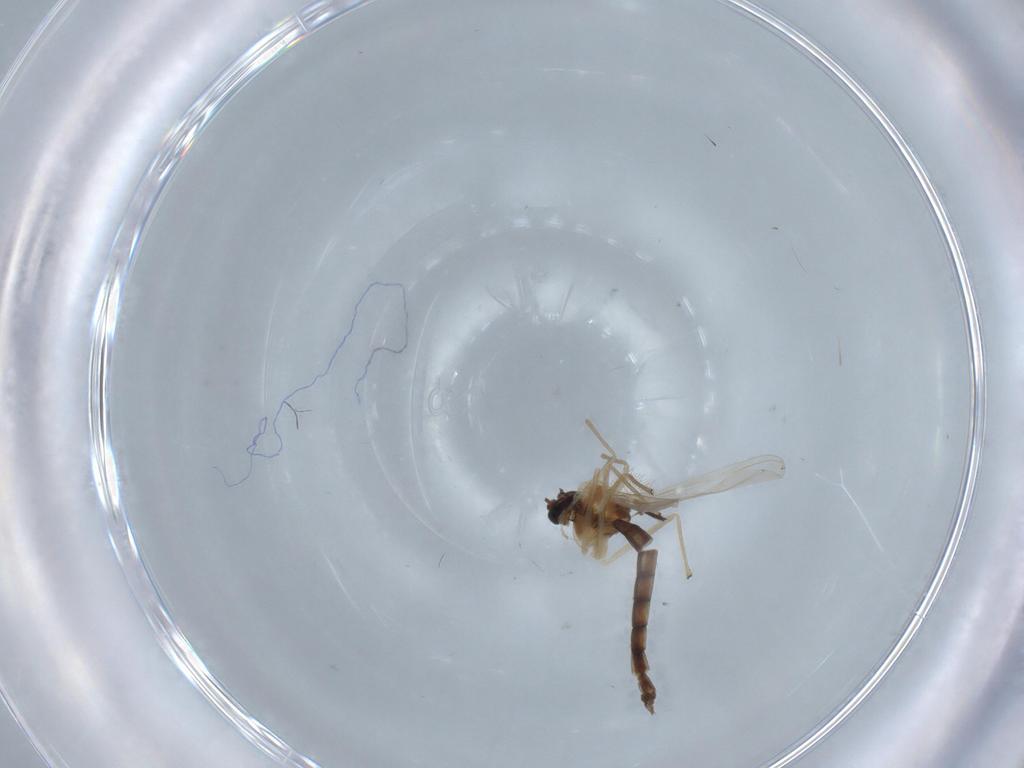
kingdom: Animalia
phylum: Arthropoda
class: Insecta
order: Diptera
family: Chironomidae
